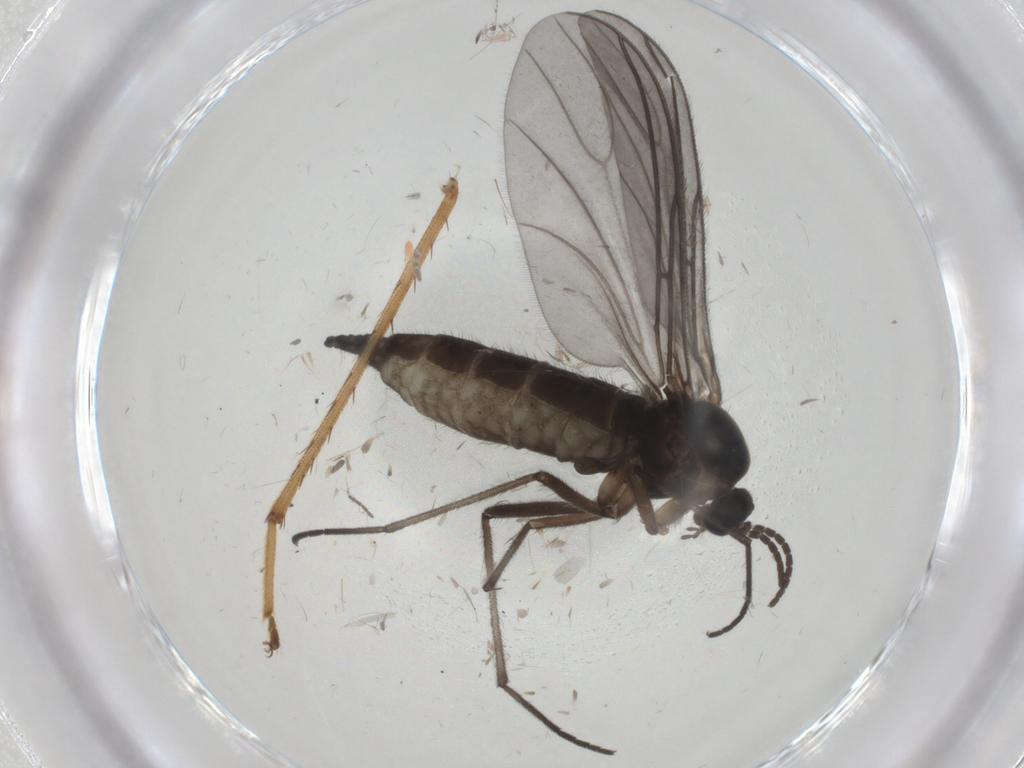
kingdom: Animalia
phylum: Arthropoda
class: Insecta
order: Diptera
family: Sciaridae
